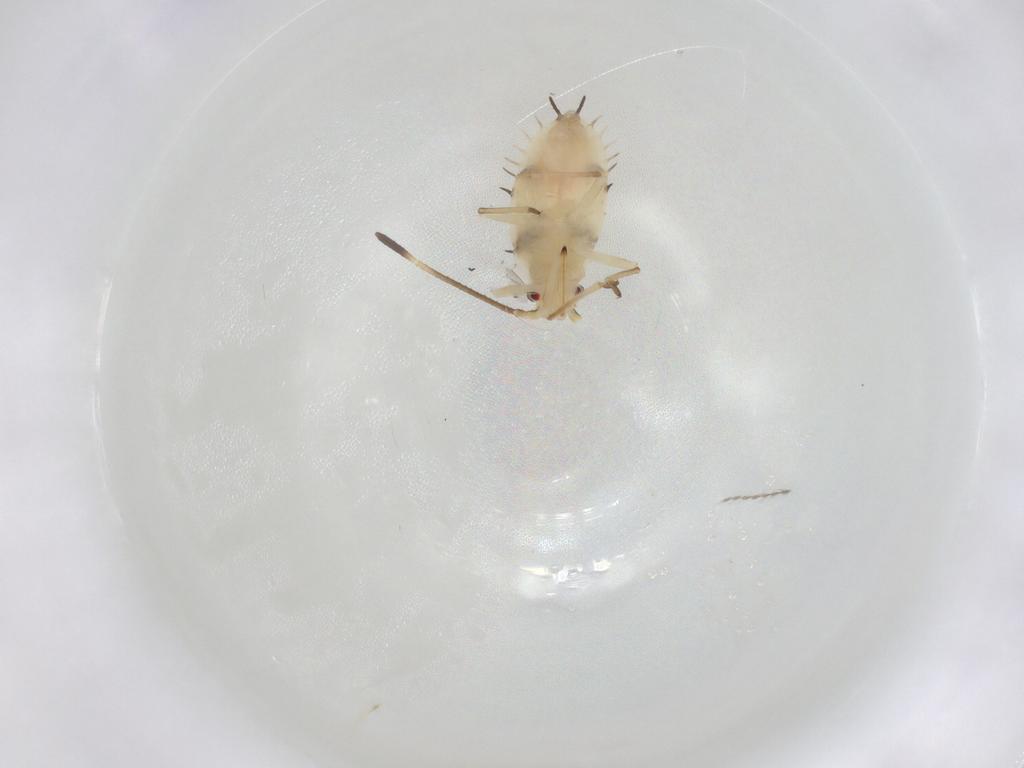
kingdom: Animalia
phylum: Arthropoda
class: Insecta
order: Hemiptera
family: Tingidae
